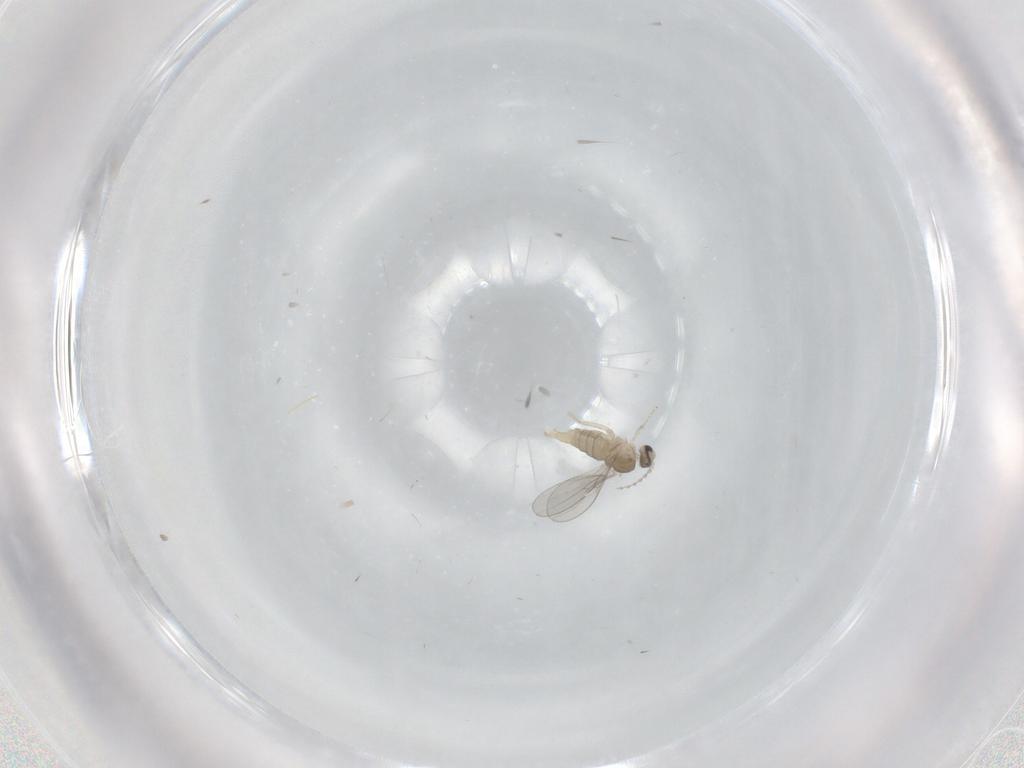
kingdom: Animalia
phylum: Arthropoda
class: Insecta
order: Diptera
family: Cecidomyiidae
